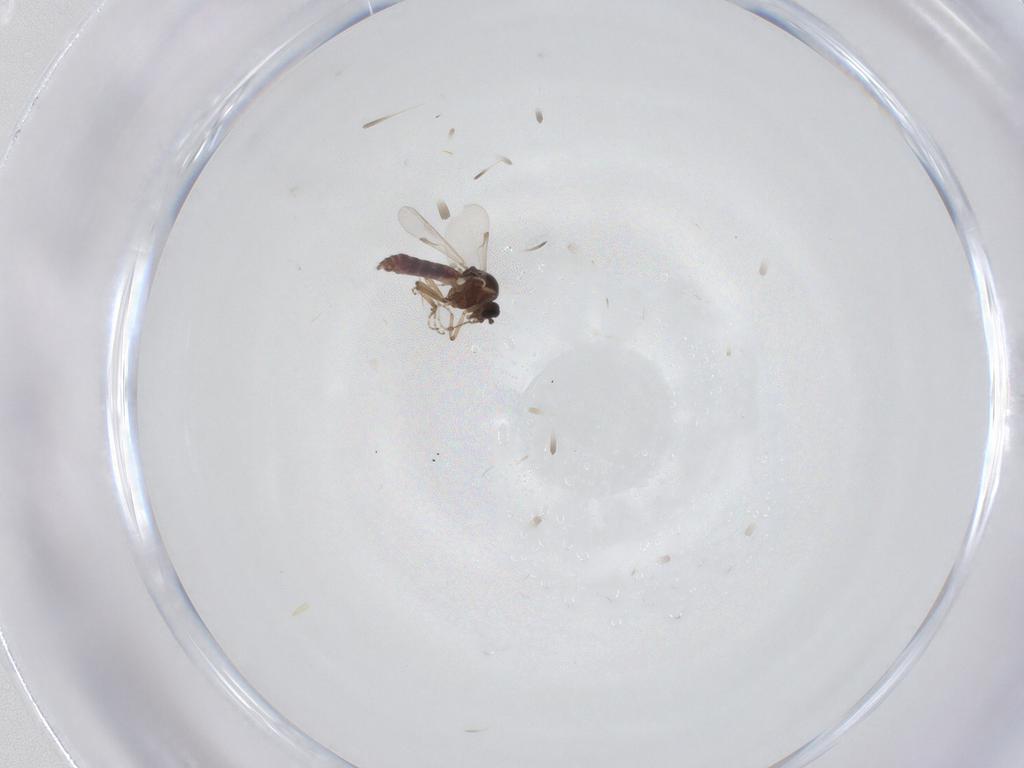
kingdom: Animalia
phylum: Arthropoda
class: Insecta
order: Diptera
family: Ceratopogonidae
